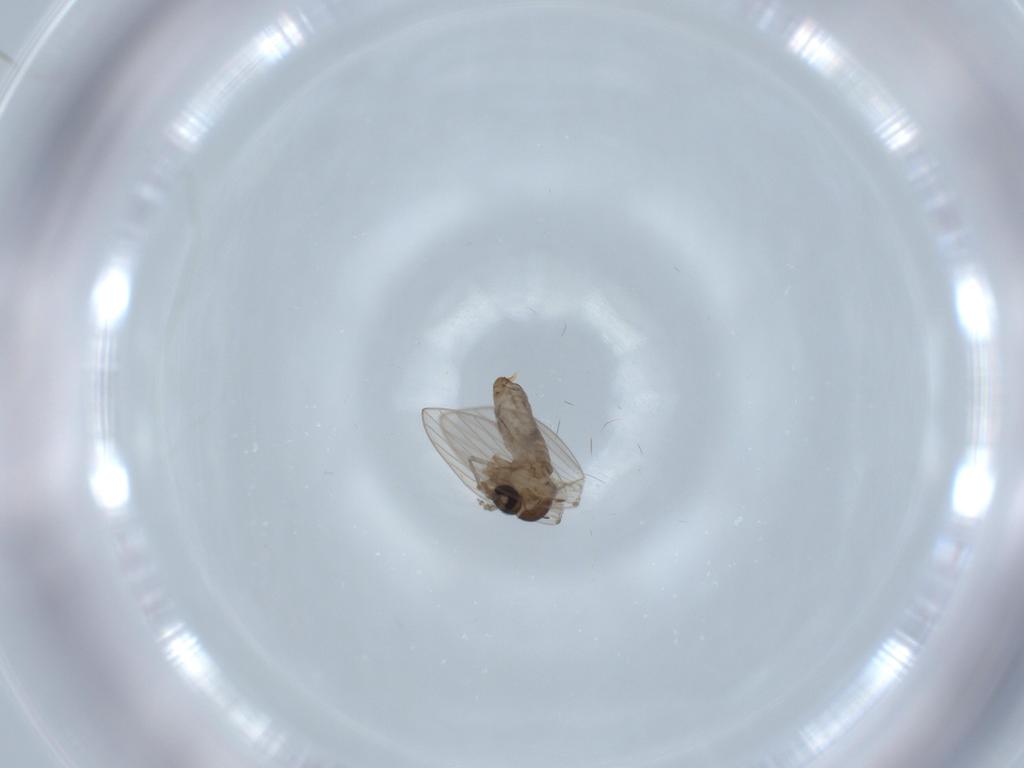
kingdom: Animalia
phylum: Arthropoda
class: Insecta
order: Diptera
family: Psychodidae
